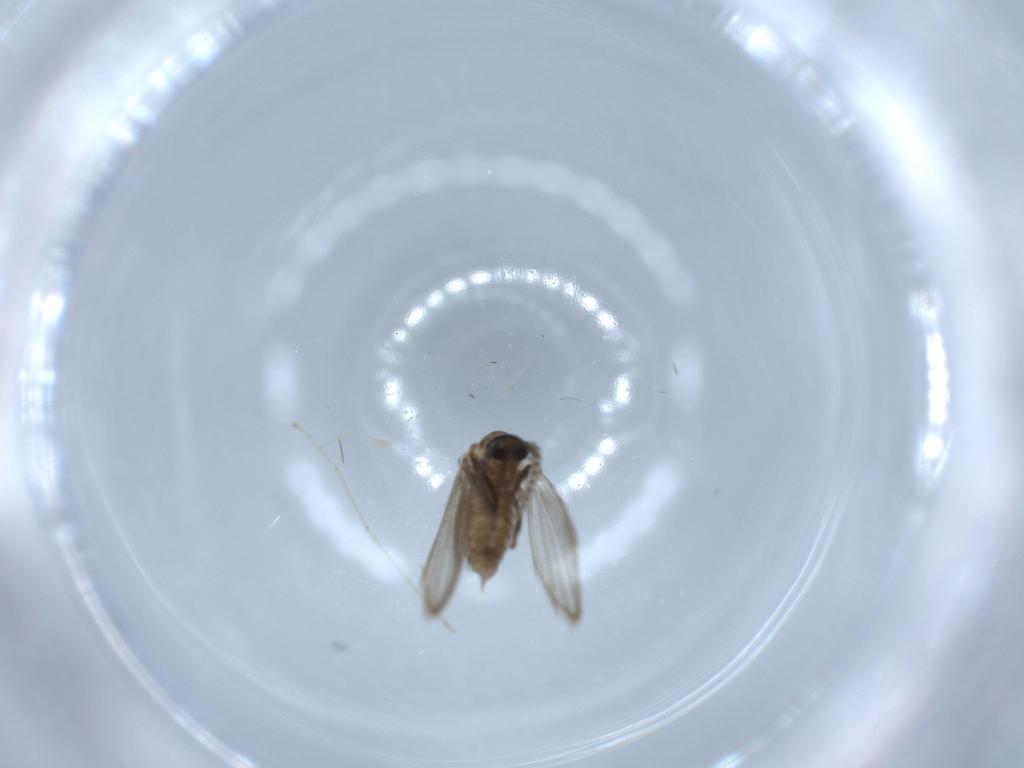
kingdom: Animalia
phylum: Arthropoda
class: Insecta
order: Diptera
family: Psychodidae
